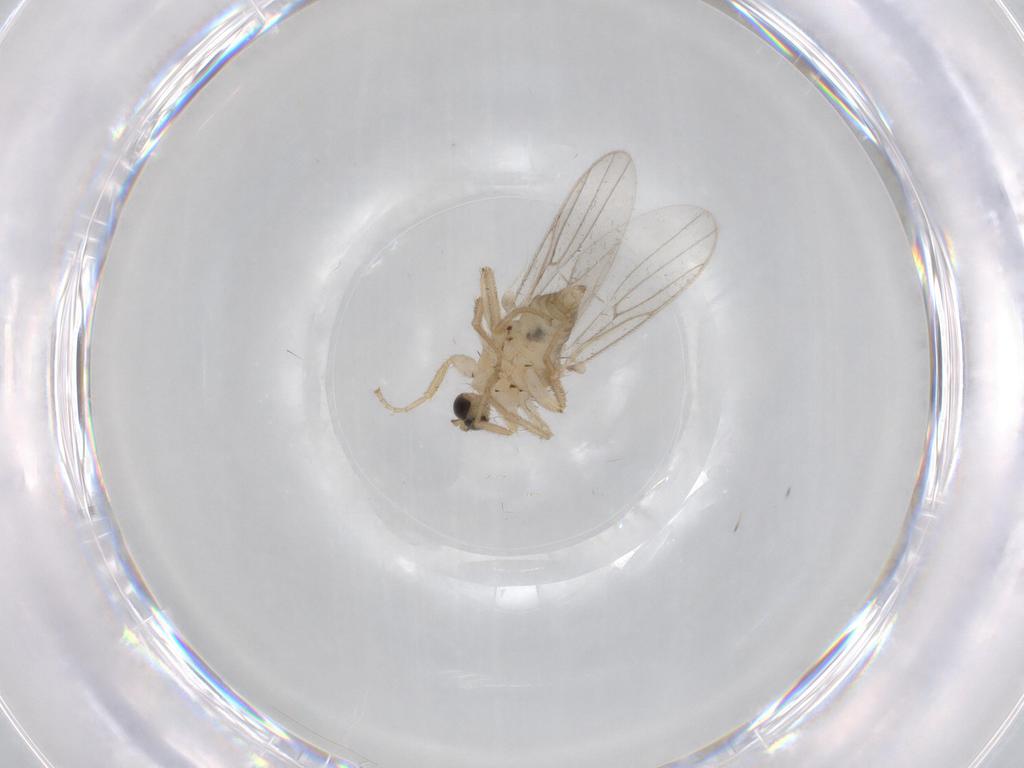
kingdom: Animalia
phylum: Arthropoda
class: Insecta
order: Diptera
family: Hybotidae
